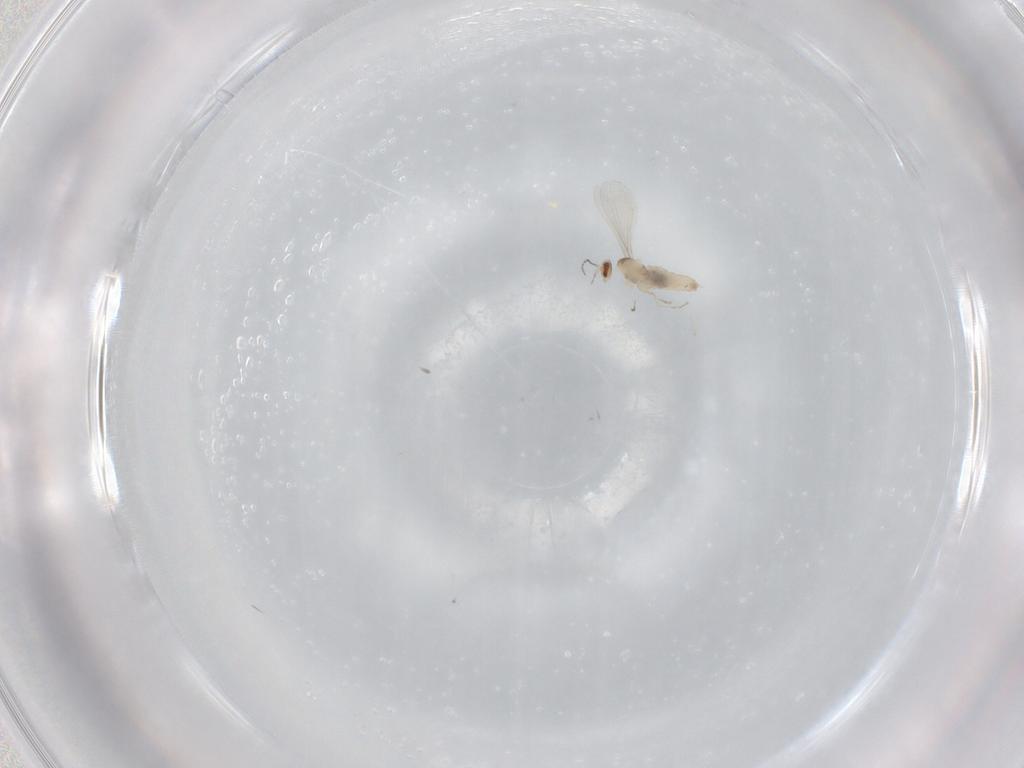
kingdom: Animalia
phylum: Arthropoda
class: Insecta
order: Diptera
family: Cecidomyiidae
